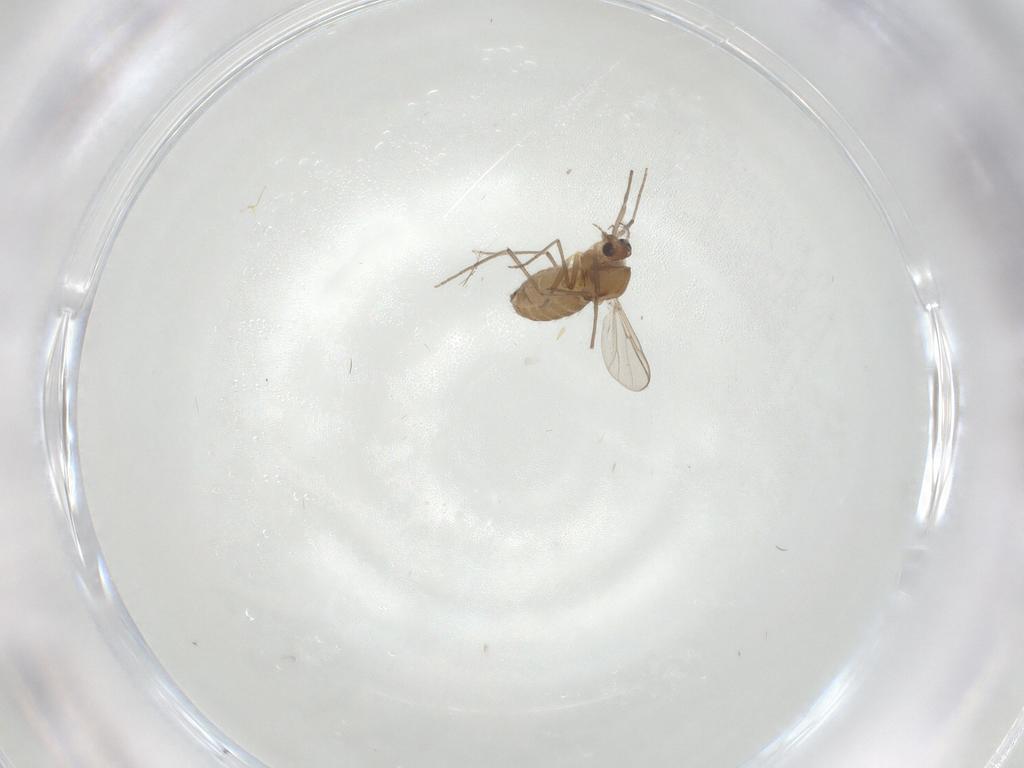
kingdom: Animalia
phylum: Arthropoda
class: Insecta
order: Diptera
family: Chironomidae
